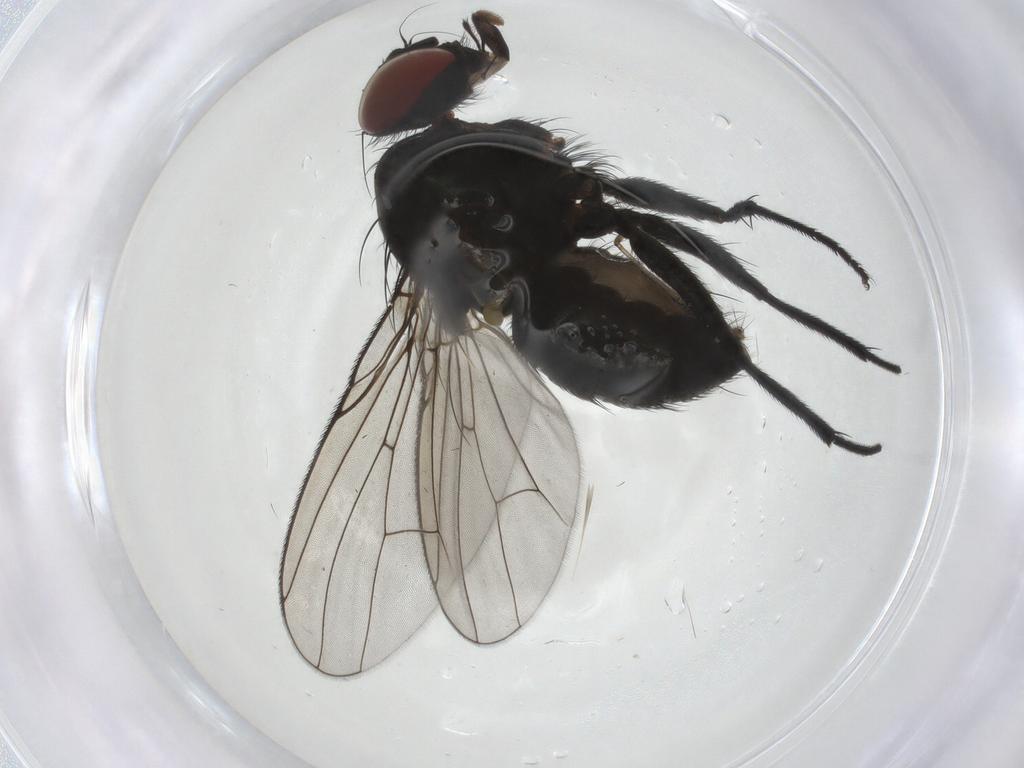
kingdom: Animalia
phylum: Arthropoda
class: Insecta
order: Diptera
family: Muscidae
